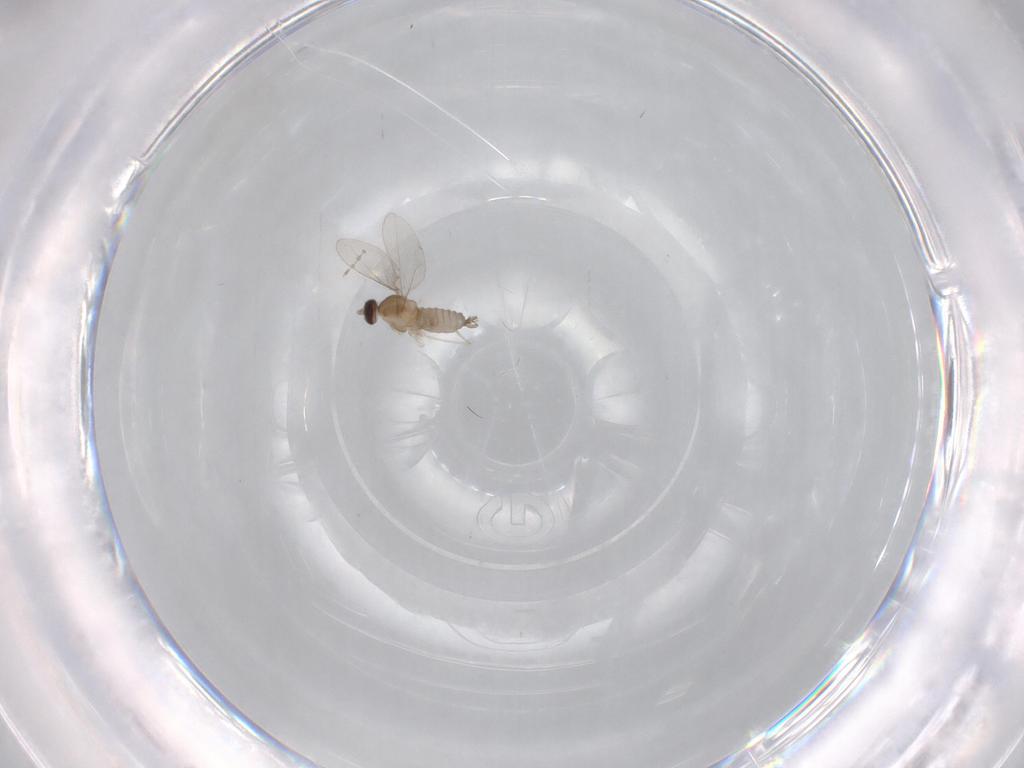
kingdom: Animalia
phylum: Arthropoda
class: Insecta
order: Diptera
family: Cecidomyiidae
